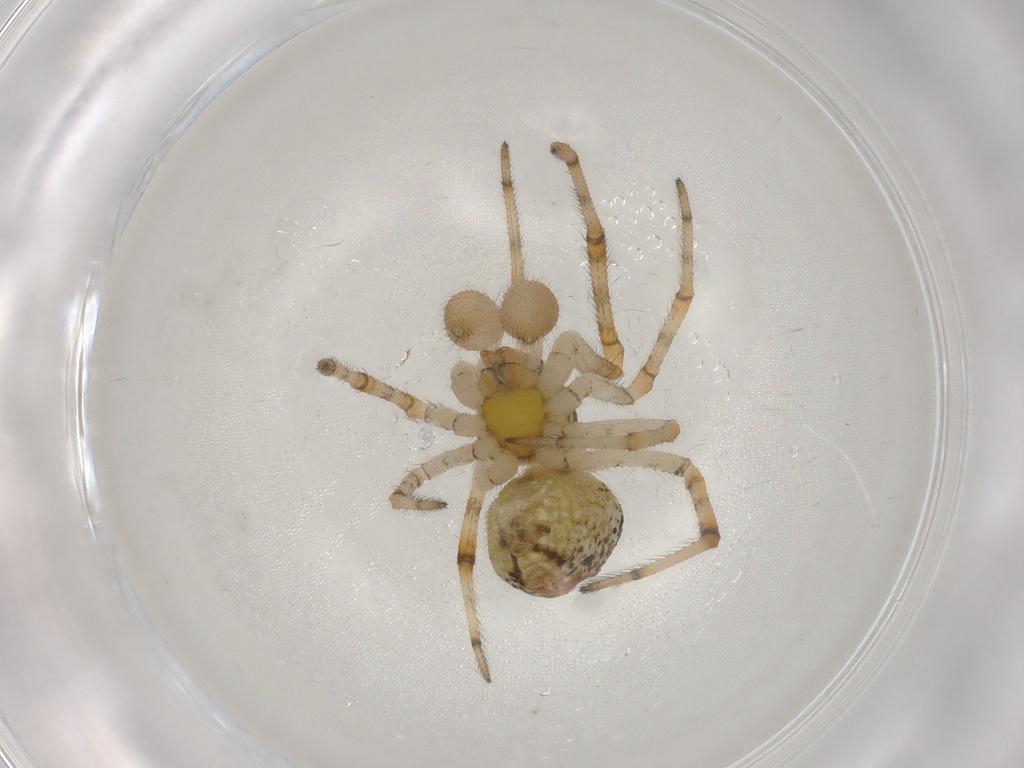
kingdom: Animalia
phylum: Arthropoda
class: Arachnida
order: Araneae
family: Theridiidae
